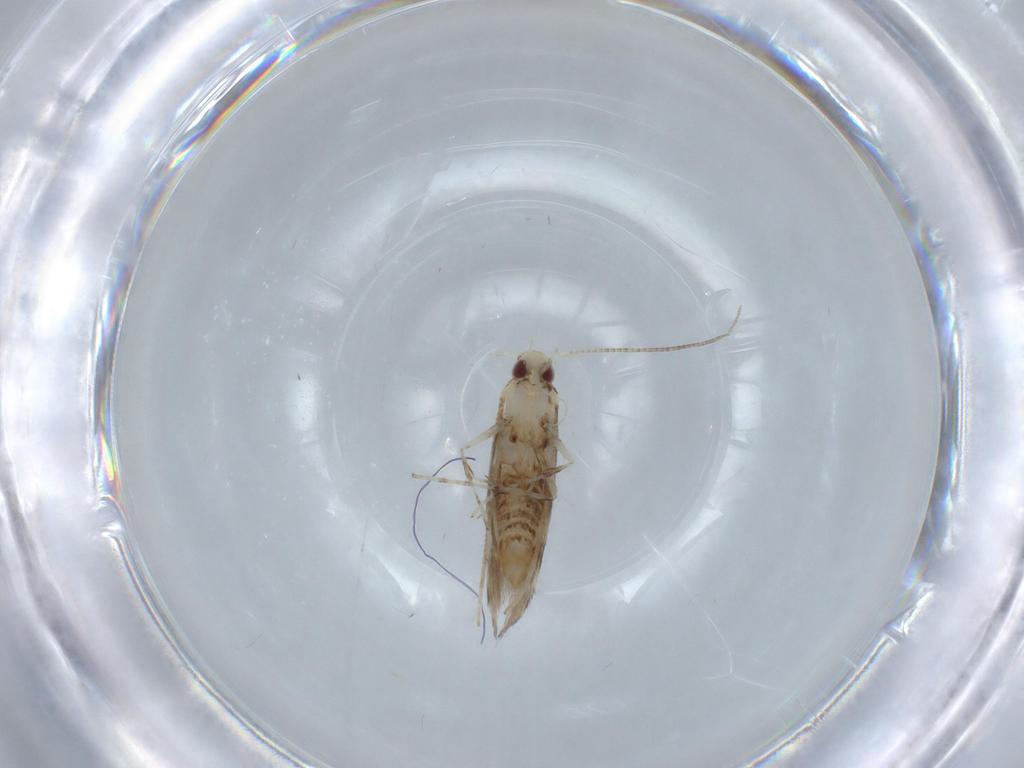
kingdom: Animalia
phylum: Arthropoda
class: Insecta
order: Lepidoptera
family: Gracillariidae
